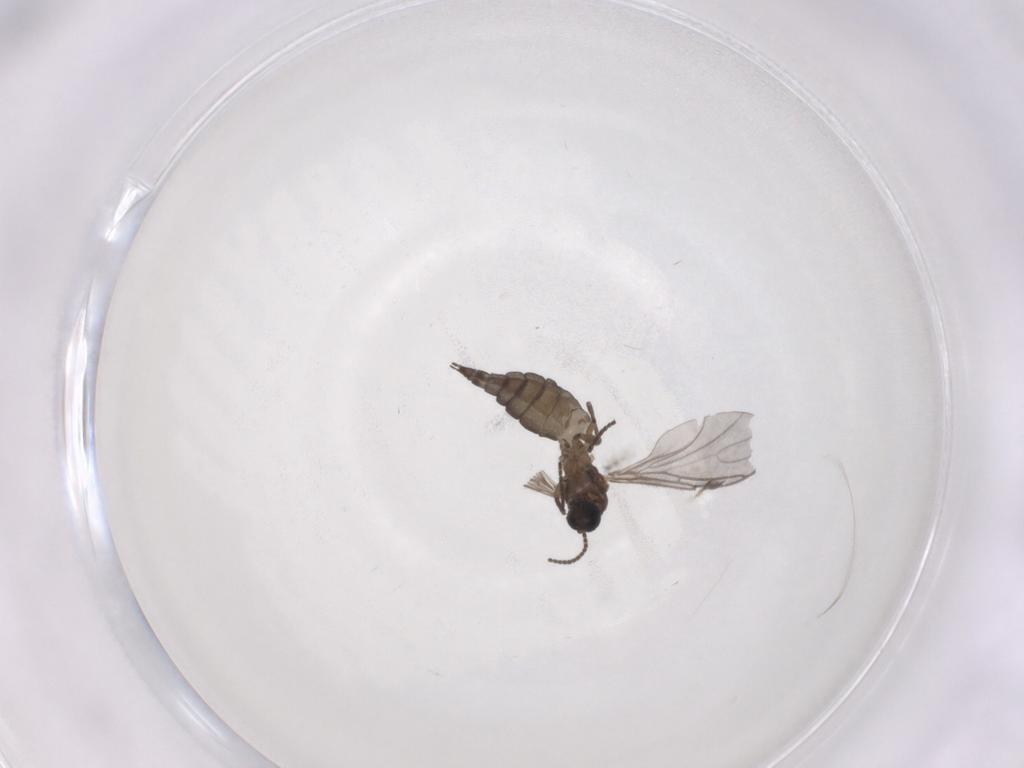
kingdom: Animalia
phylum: Arthropoda
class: Insecta
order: Diptera
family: Sciaridae
